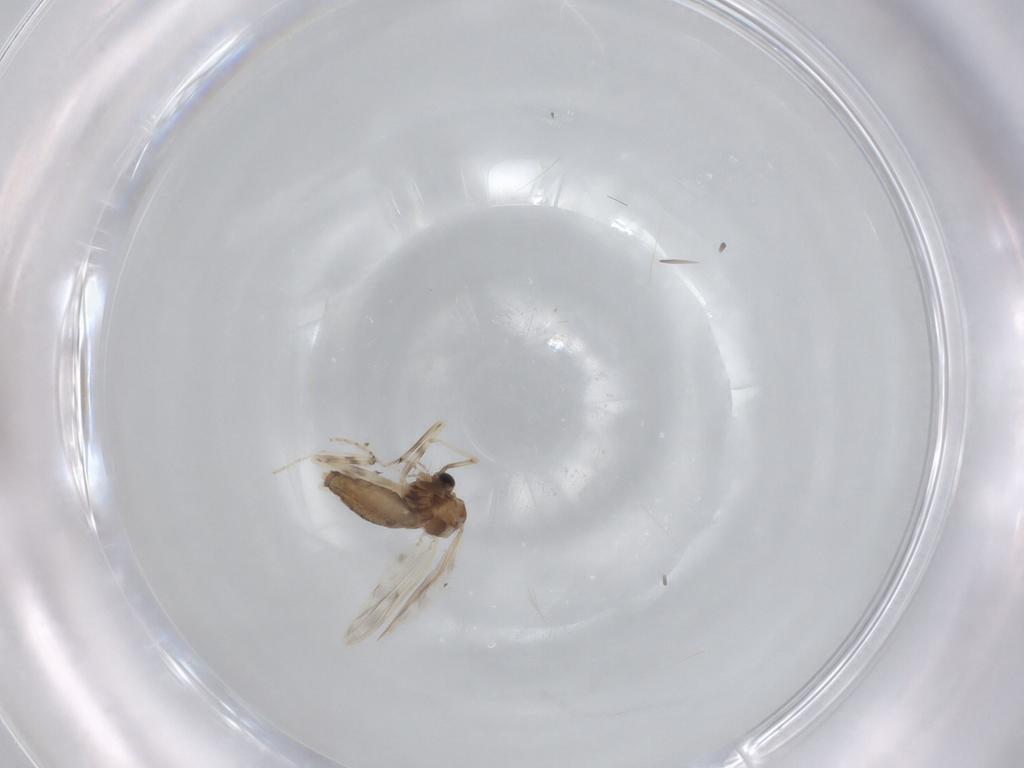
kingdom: Animalia
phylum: Arthropoda
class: Insecta
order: Diptera
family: Chironomidae
